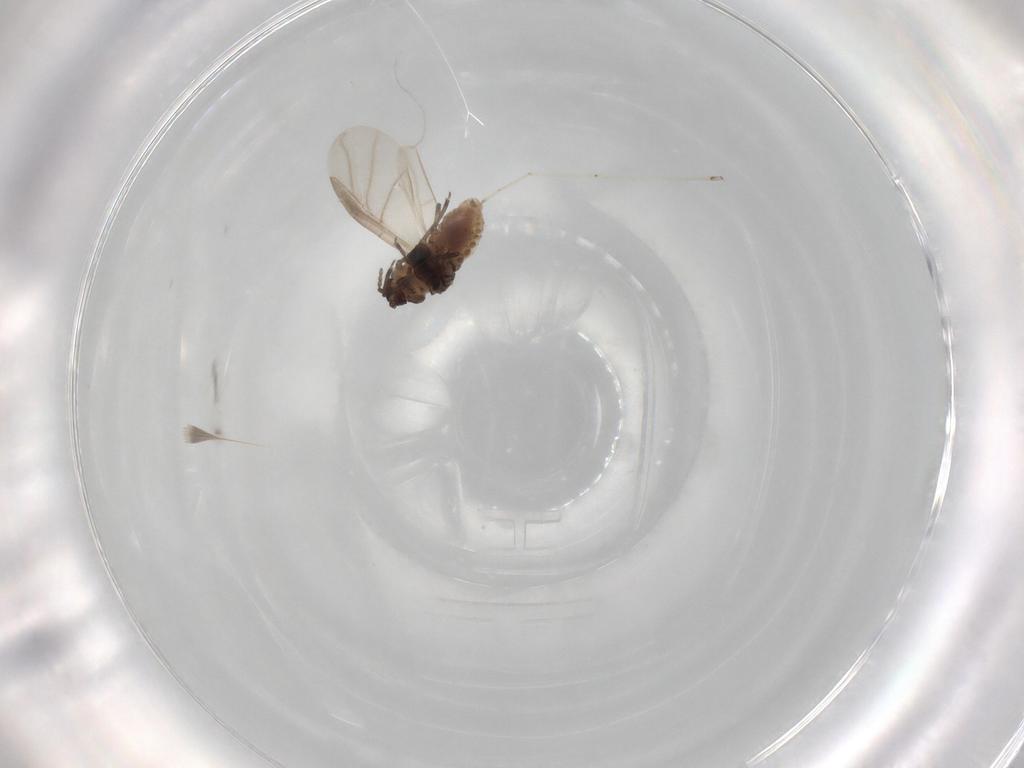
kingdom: Animalia
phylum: Arthropoda
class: Insecta
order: Hemiptera
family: Adelgidae
